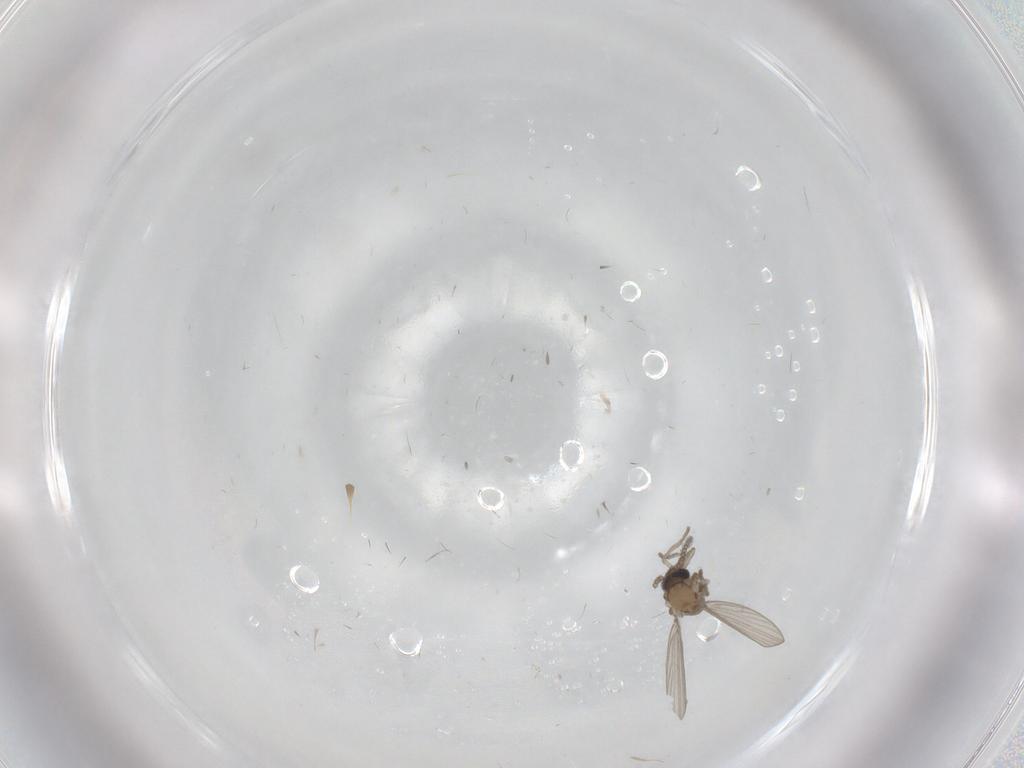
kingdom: Animalia
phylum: Arthropoda
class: Insecta
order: Diptera
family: Psychodidae
